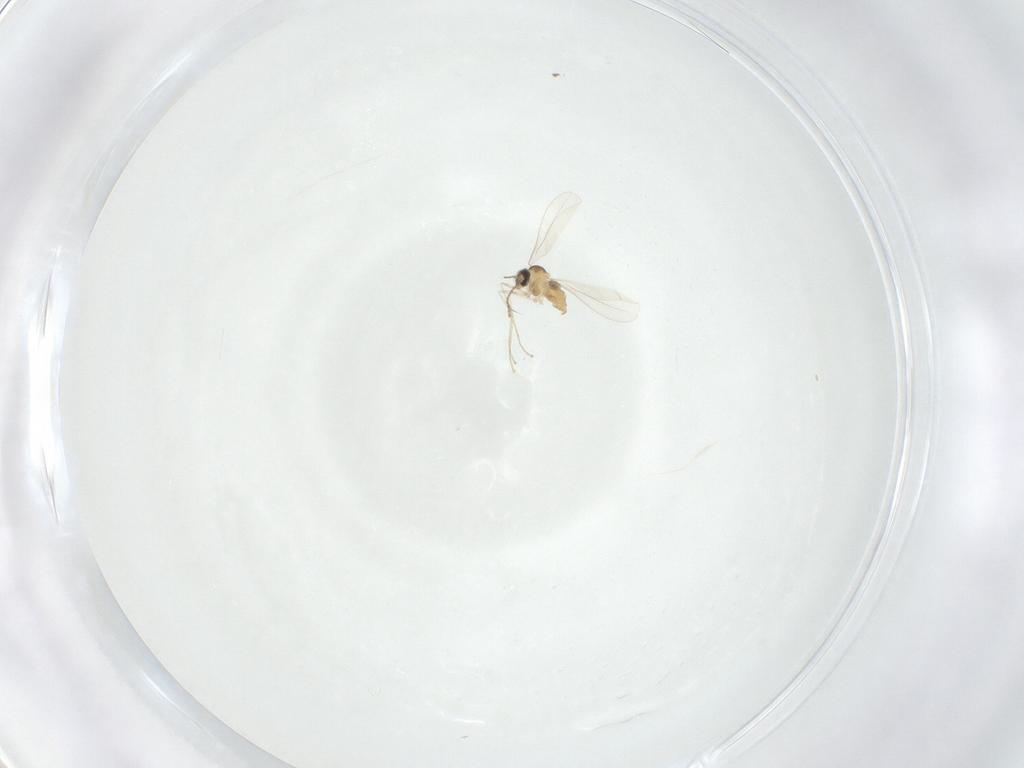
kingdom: Animalia
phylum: Arthropoda
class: Insecta
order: Diptera
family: Cecidomyiidae
